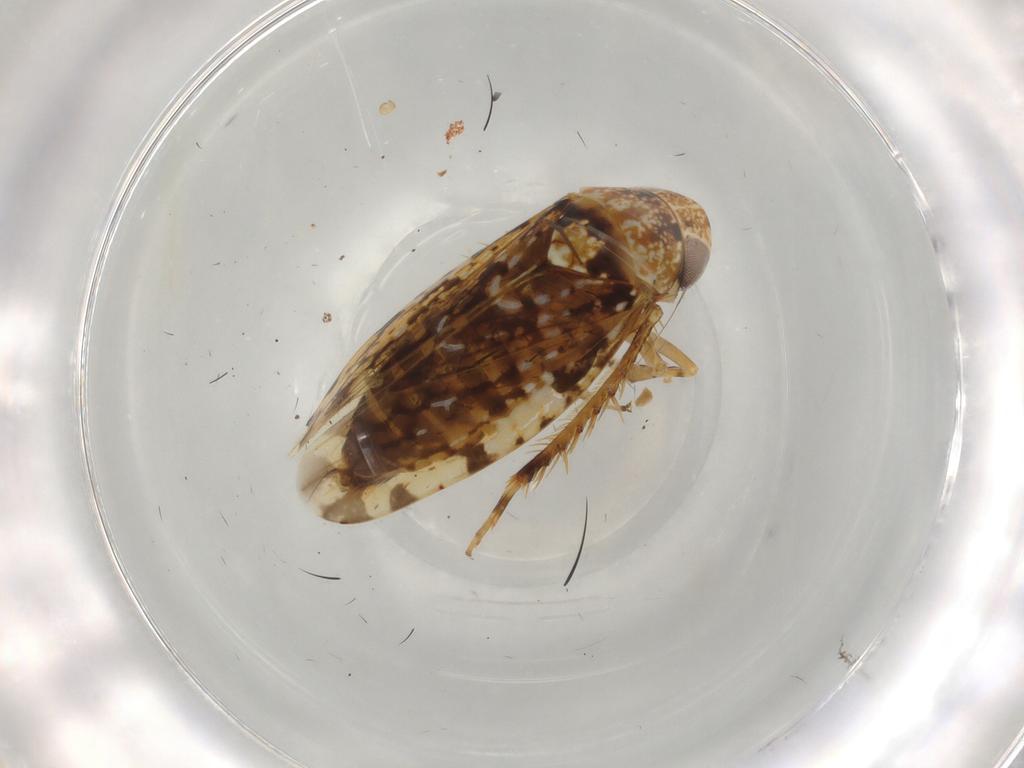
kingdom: Animalia
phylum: Arthropoda
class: Insecta
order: Hemiptera
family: Cicadellidae
